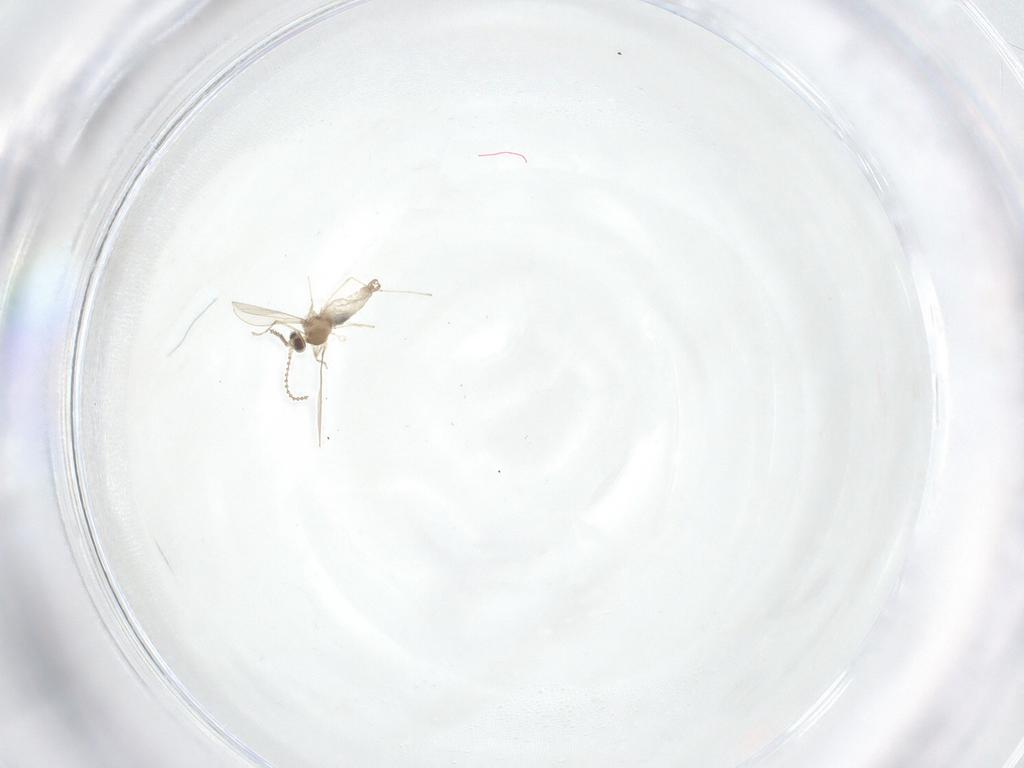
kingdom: Animalia
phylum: Arthropoda
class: Insecta
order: Diptera
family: Cecidomyiidae
